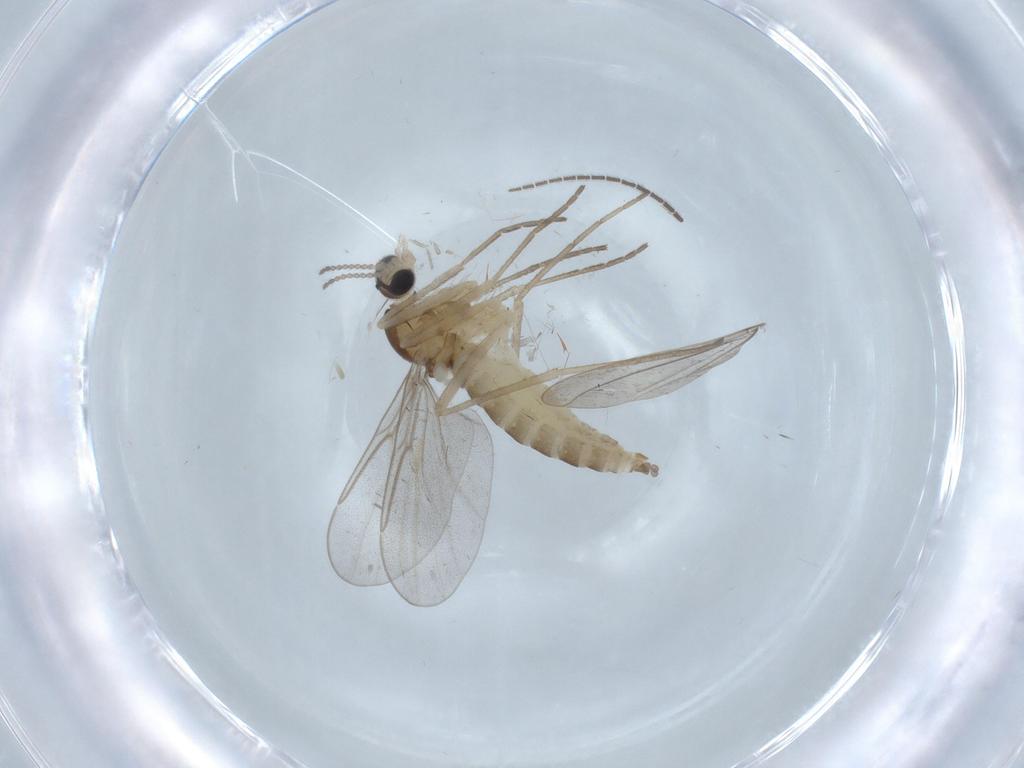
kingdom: Animalia
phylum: Arthropoda
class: Insecta
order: Diptera
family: Cecidomyiidae
